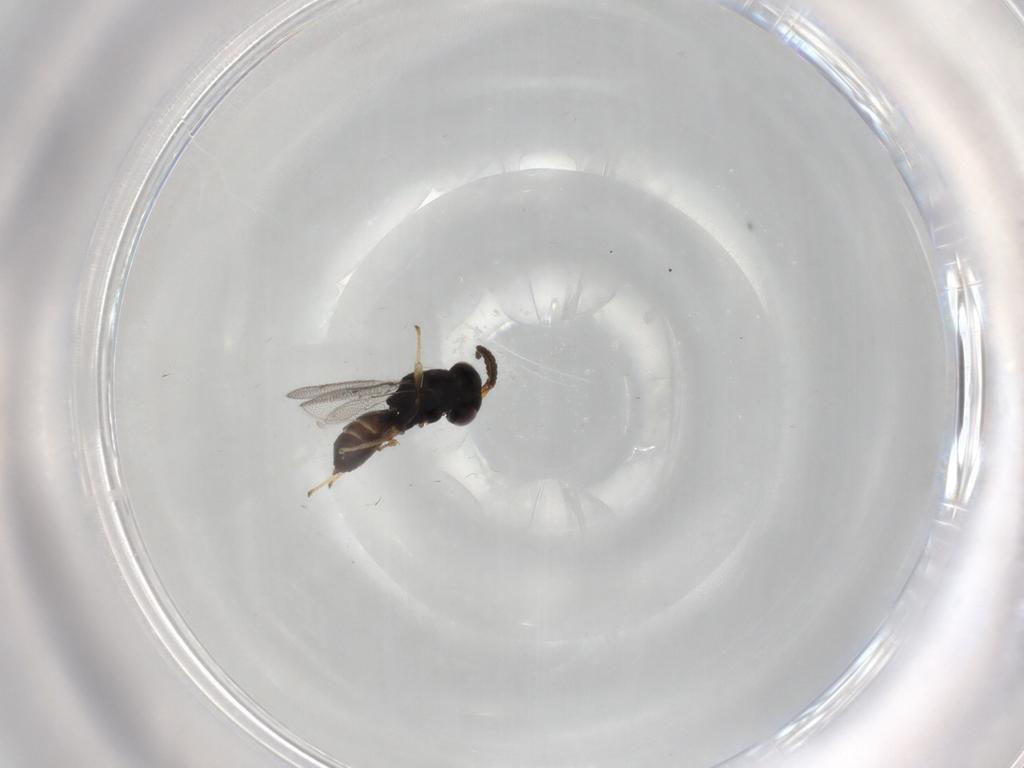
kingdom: Animalia
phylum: Arthropoda
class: Insecta
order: Hymenoptera
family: Pteromalidae
